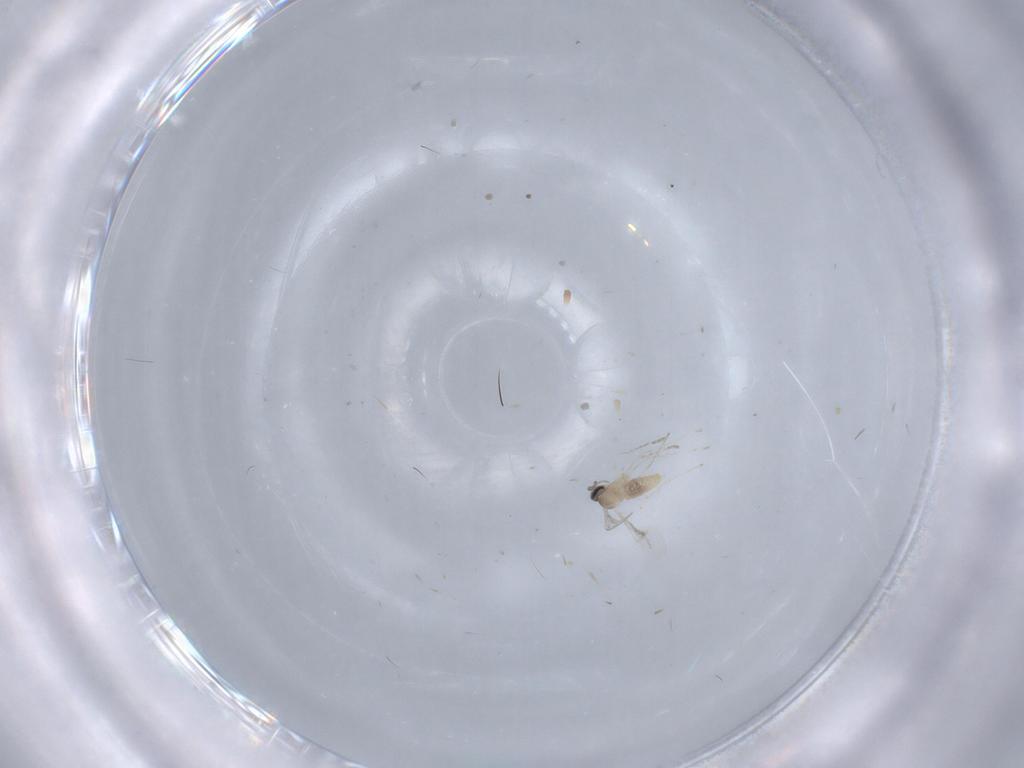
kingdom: Animalia
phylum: Arthropoda
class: Insecta
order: Diptera
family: Cecidomyiidae
